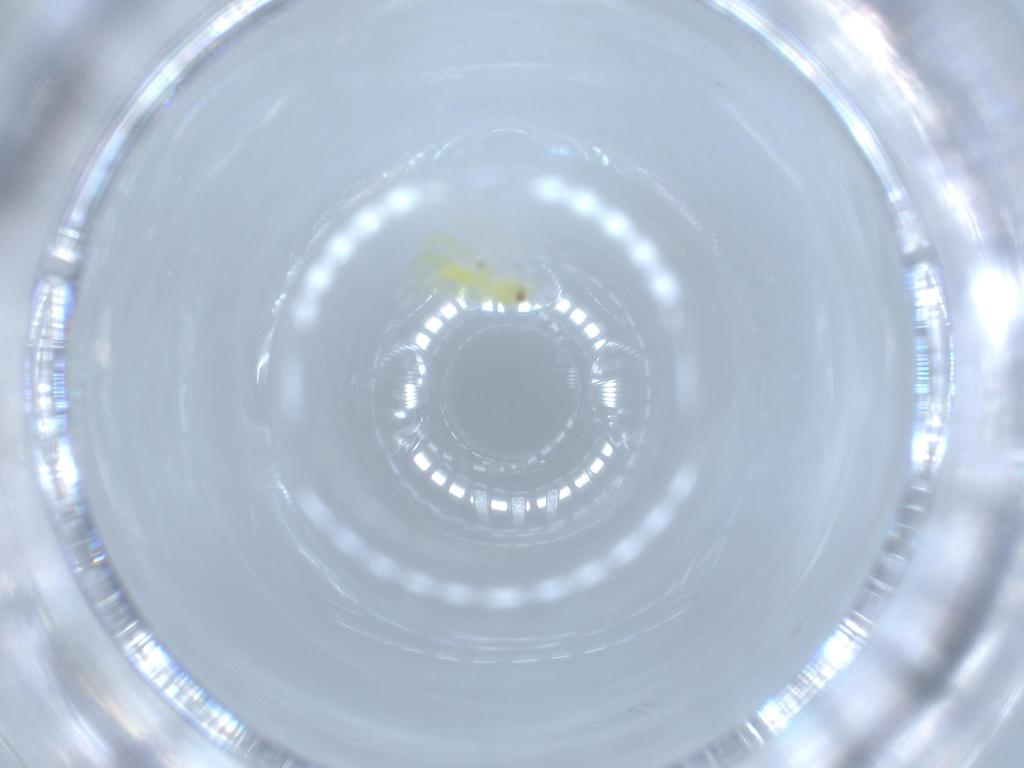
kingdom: Animalia
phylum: Arthropoda
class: Insecta
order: Diptera
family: Cecidomyiidae
